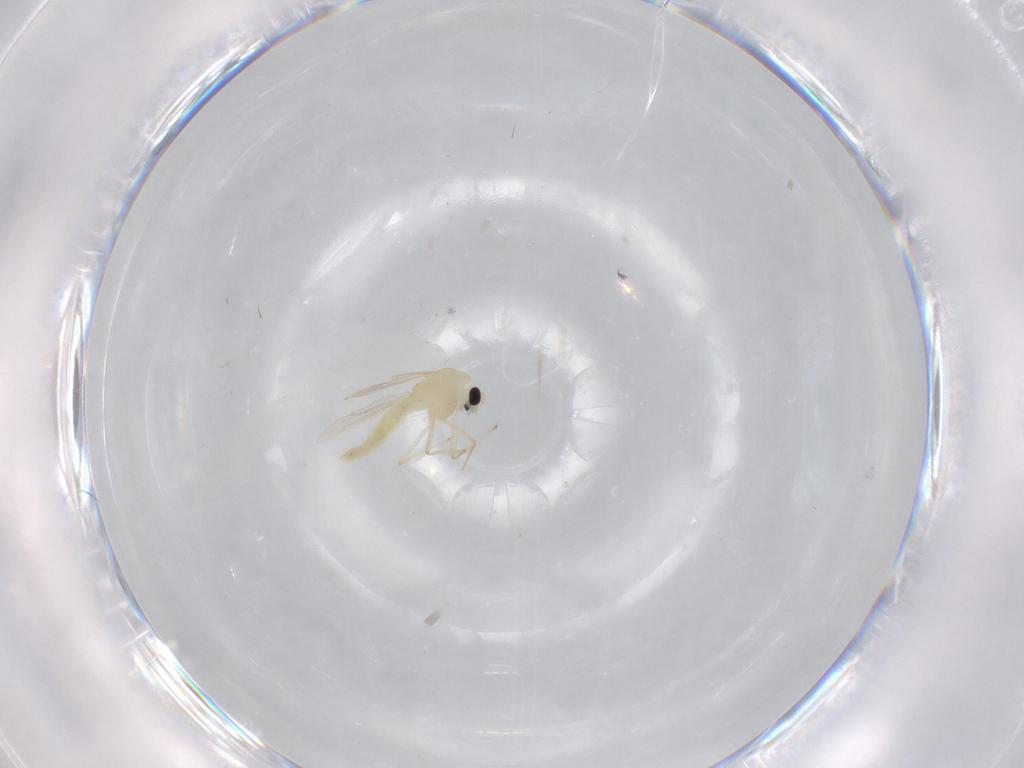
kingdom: Animalia
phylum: Arthropoda
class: Insecta
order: Diptera
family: Chironomidae
